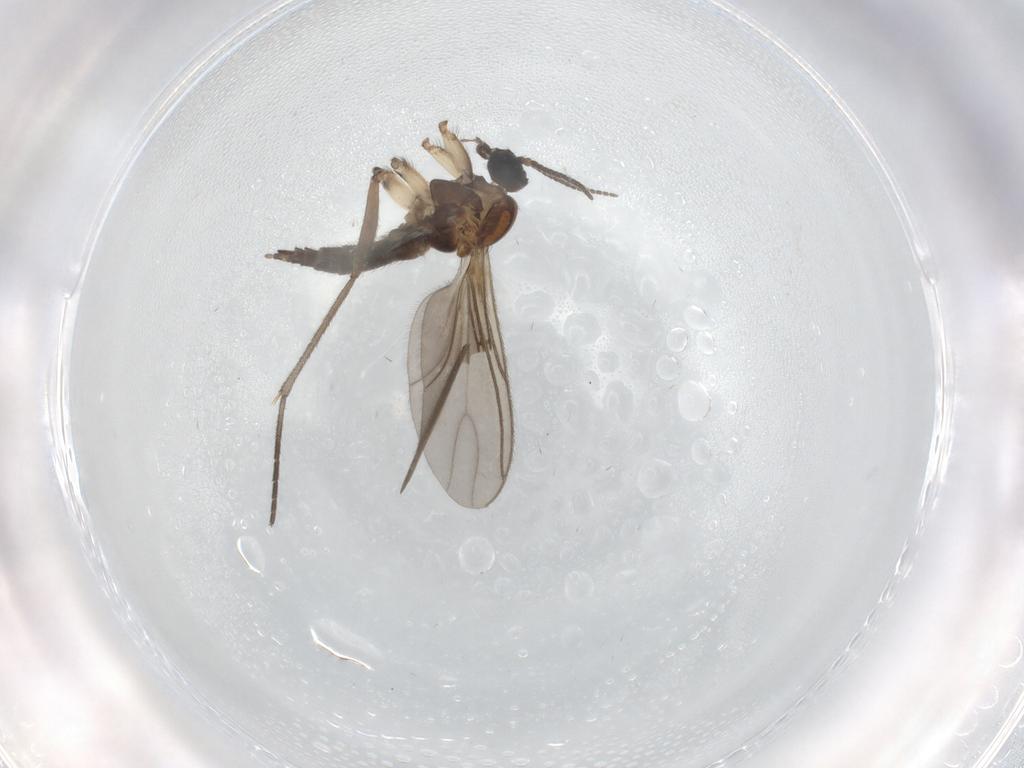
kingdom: Animalia
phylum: Arthropoda
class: Insecta
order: Diptera
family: Sciaridae
